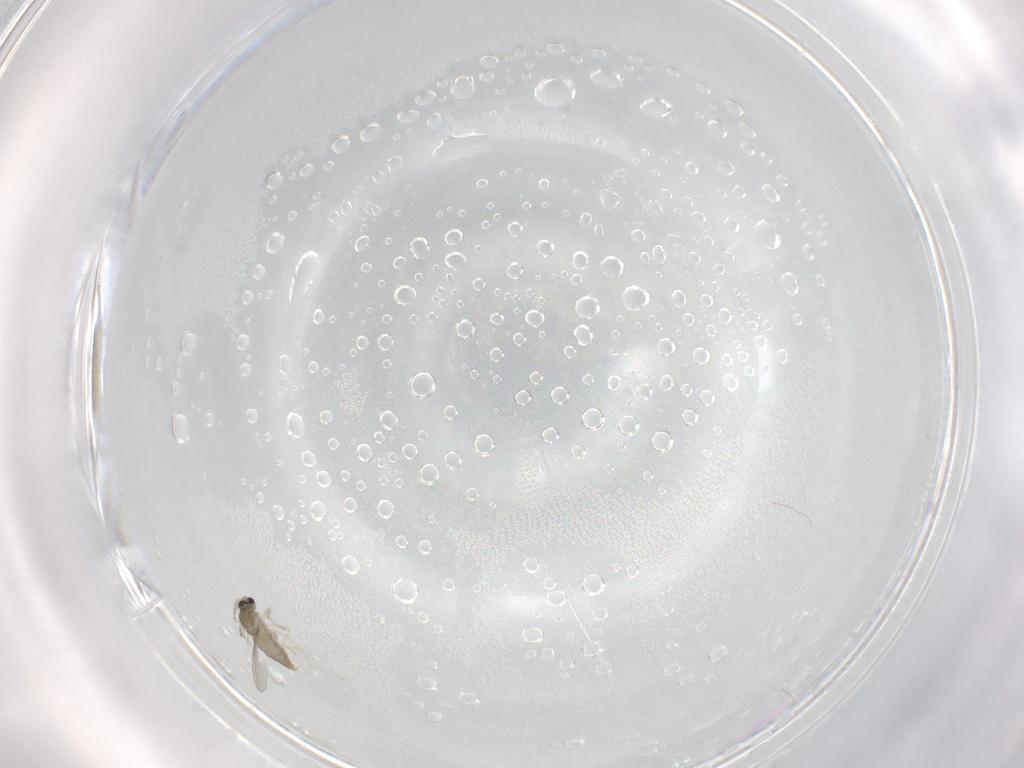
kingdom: Animalia
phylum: Arthropoda
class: Insecta
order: Diptera
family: Cecidomyiidae
